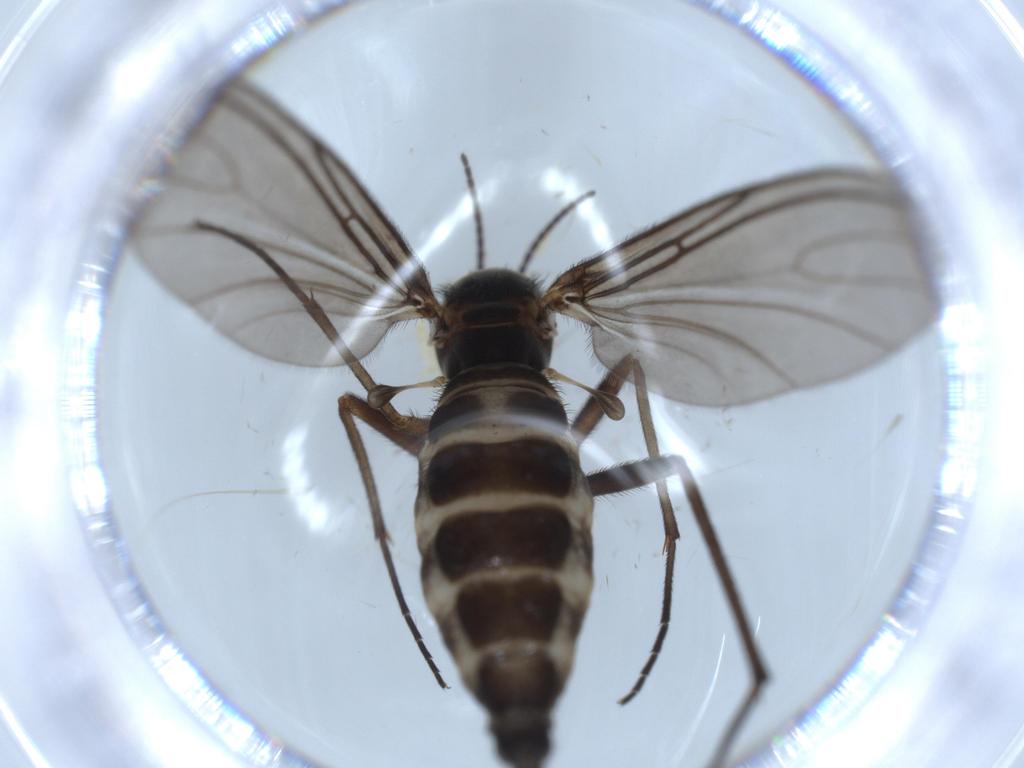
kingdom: Animalia
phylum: Arthropoda
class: Insecta
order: Diptera
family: Sciaridae
